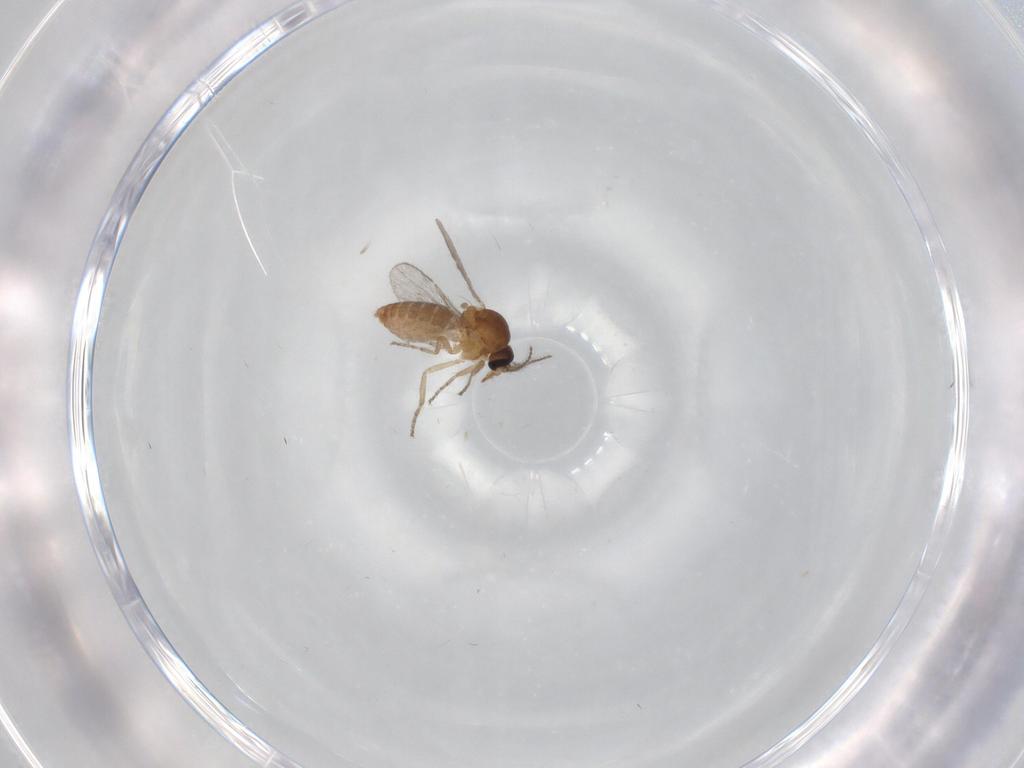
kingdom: Animalia
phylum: Arthropoda
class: Insecta
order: Diptera
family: Ceratopogonidae
